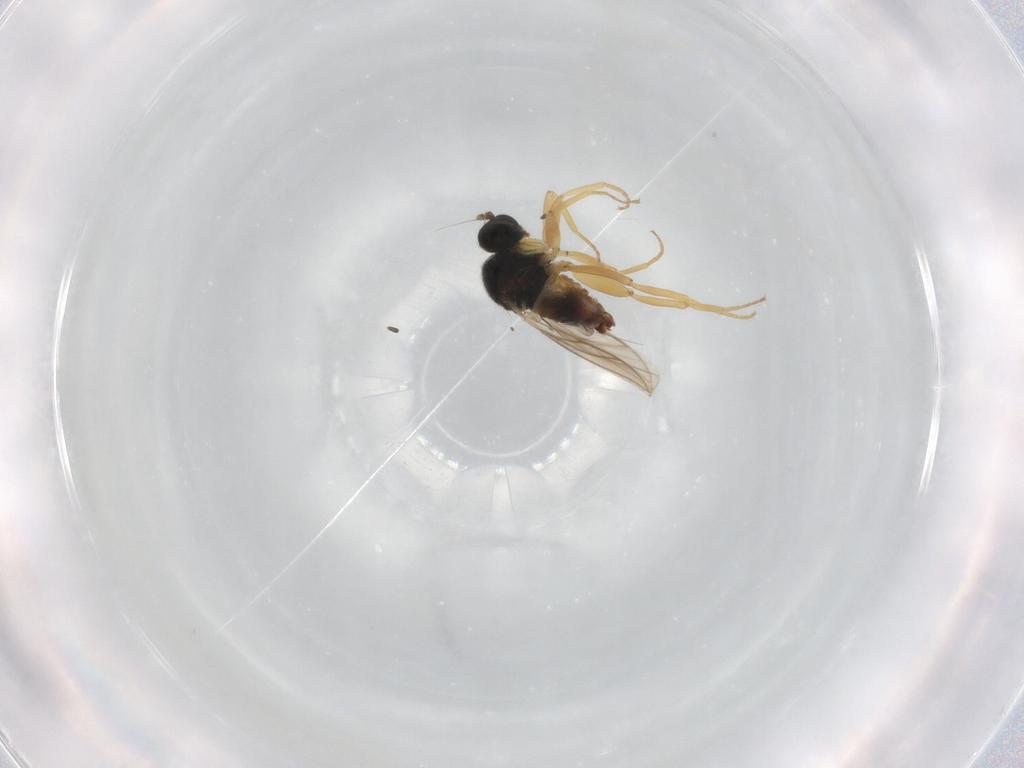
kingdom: Animalia
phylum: Arthropoda
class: Insecta
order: Diptera
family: Hybotidae
